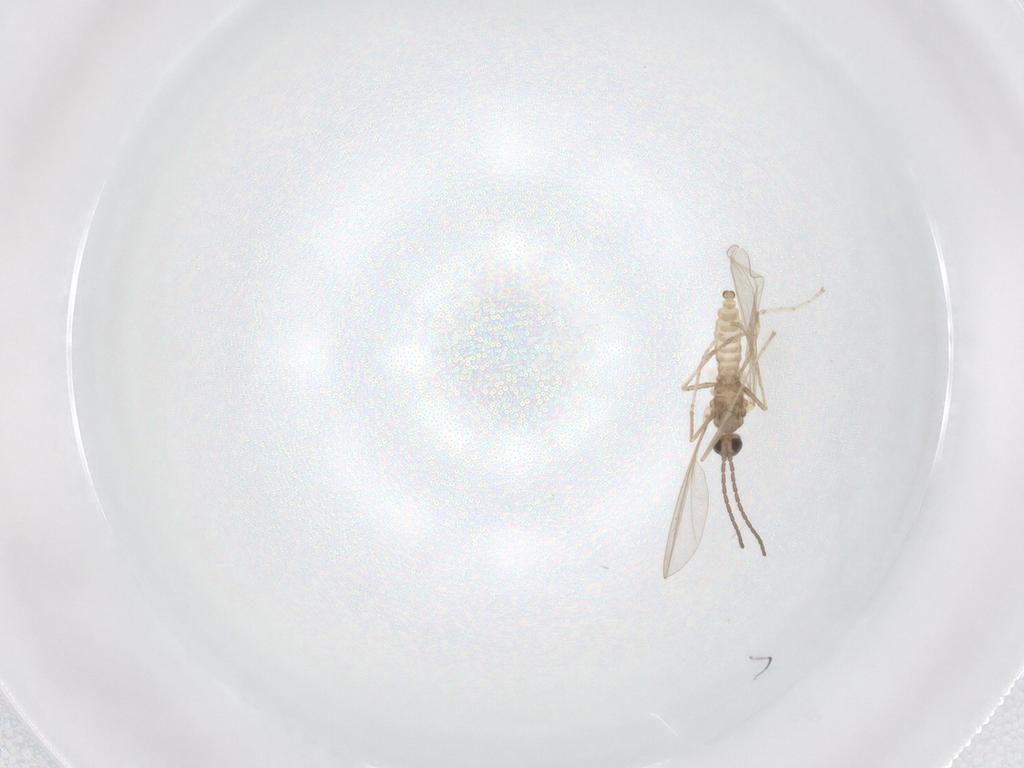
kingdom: Animalia
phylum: Arthropoda
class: Insecta
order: Diptera
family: Cecidomyiidae
